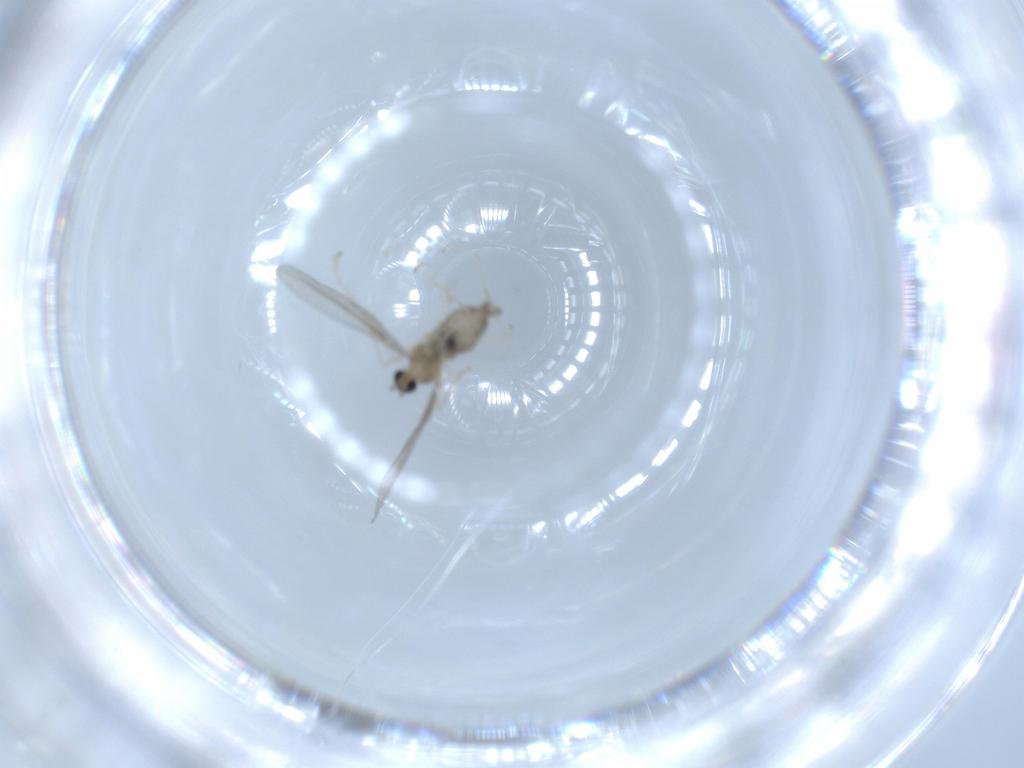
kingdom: Animalia
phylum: Arthropoda
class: Insecta
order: Diptera
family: Cecidomyiidae
